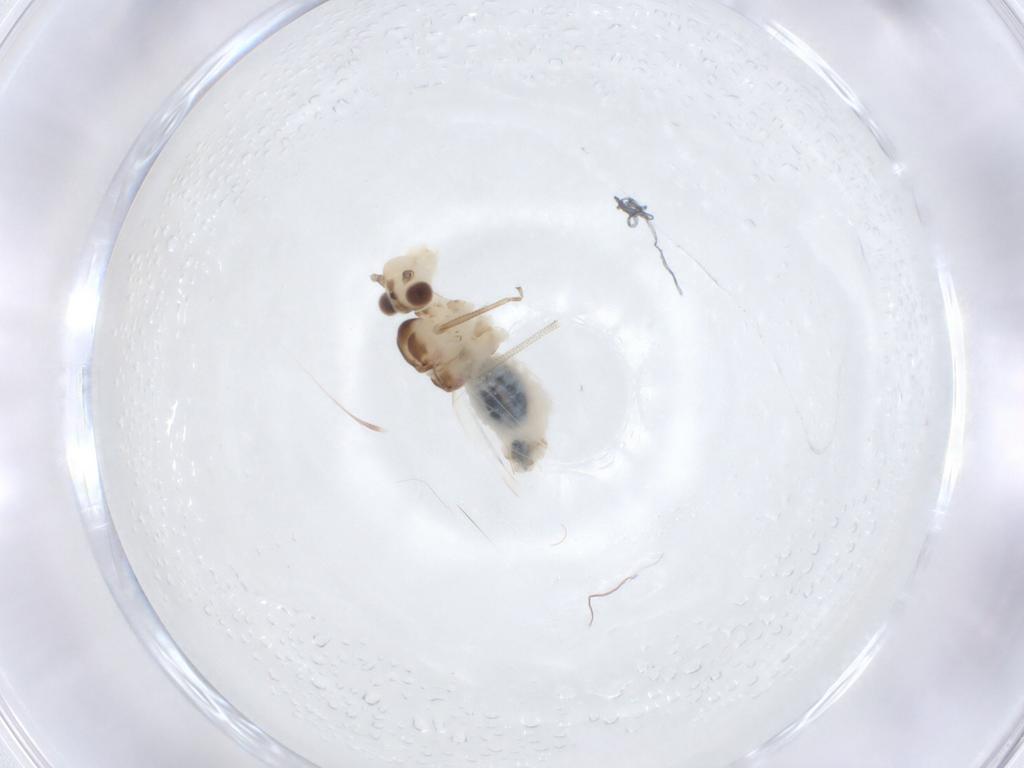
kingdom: Animalia
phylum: Arthropoda
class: Insecta
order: Psocodea
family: Caeciliusidae
